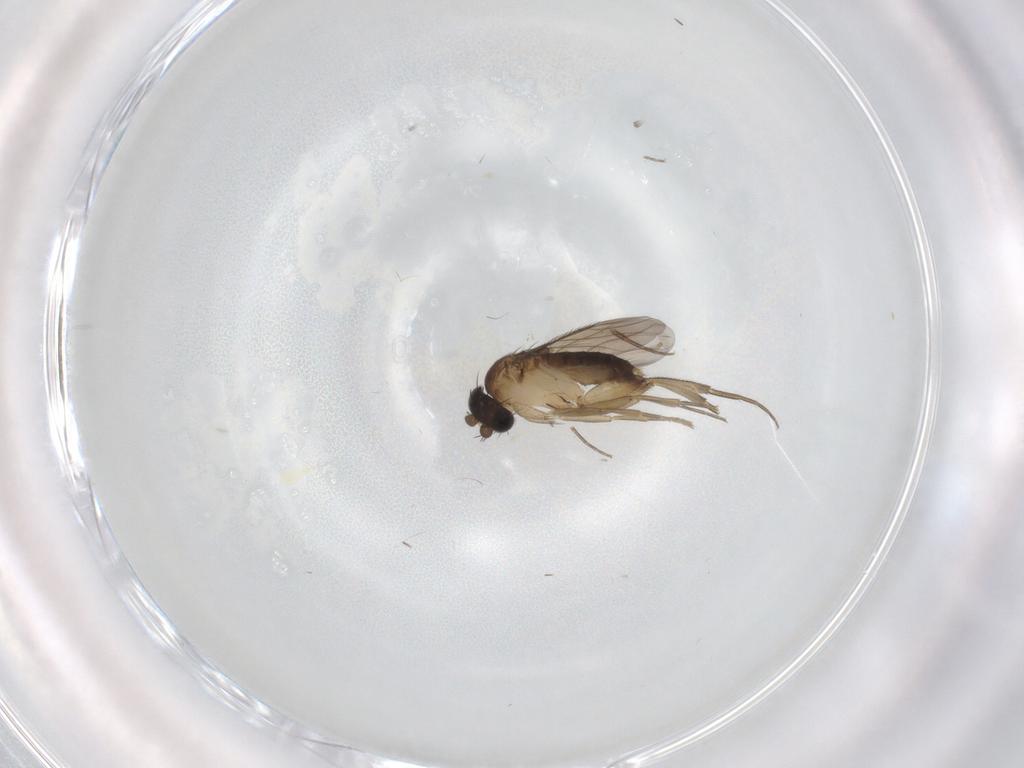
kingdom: Animalia
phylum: Arthropoda
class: Insecta
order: Diptera
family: Phoridae
